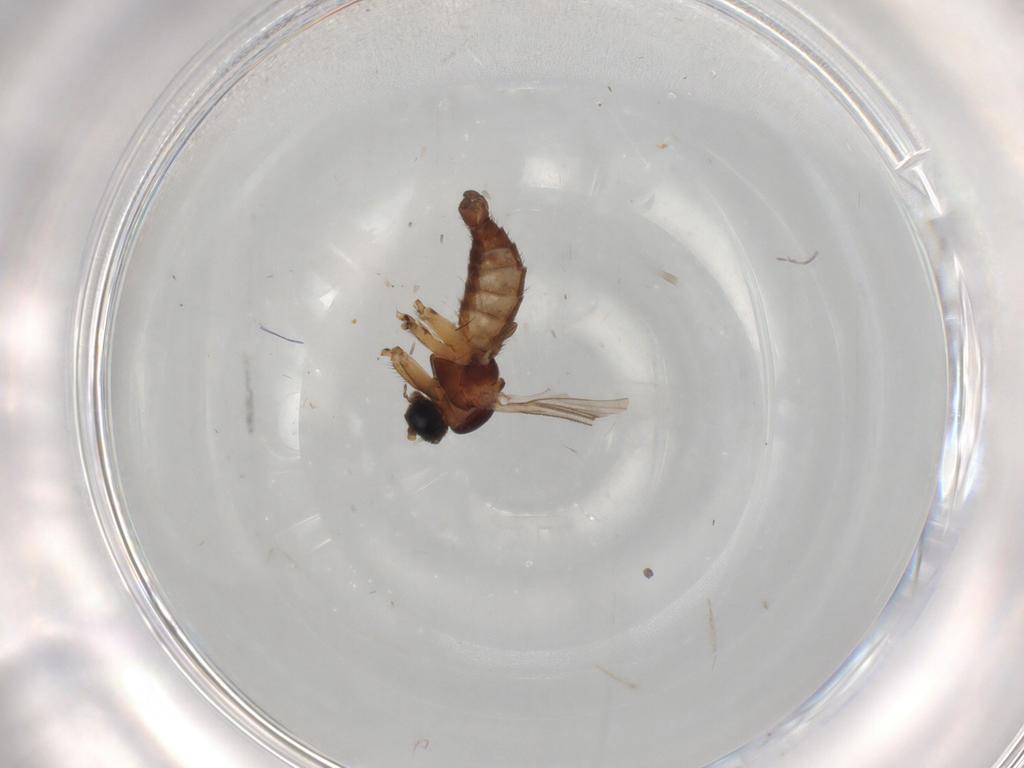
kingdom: Animalia
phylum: Arthropoda
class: Insecta
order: Diptera
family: Sciaridae
